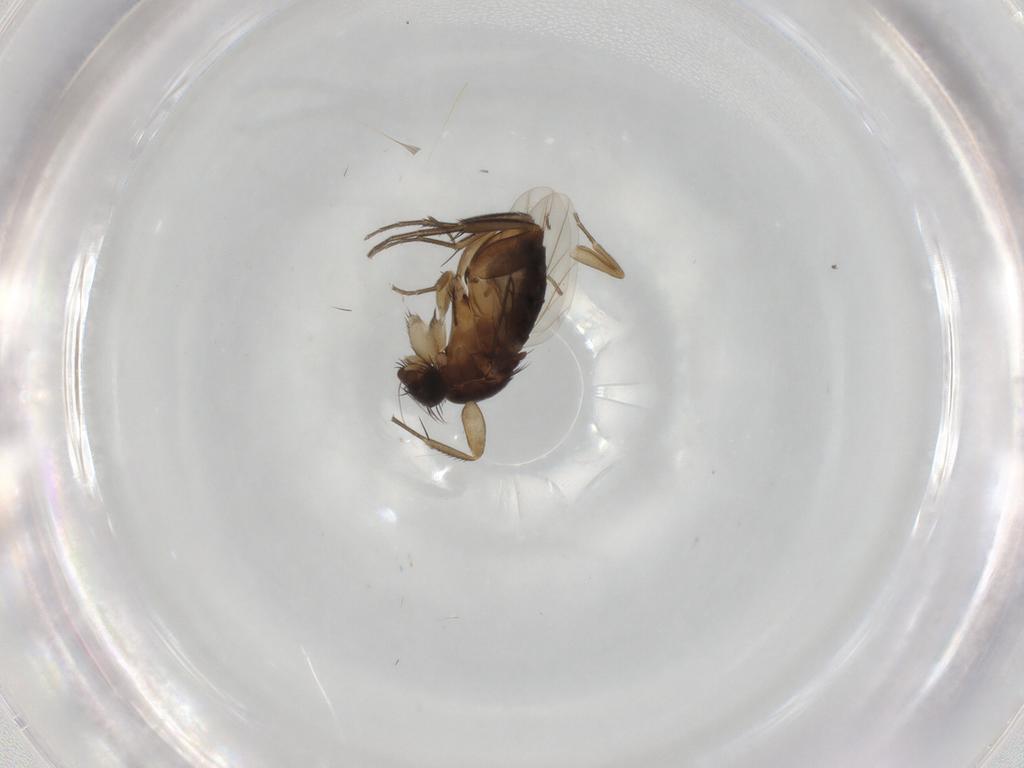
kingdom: Animalia
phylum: Arthropoda
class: Insecta
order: Diptera
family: Phoridae
